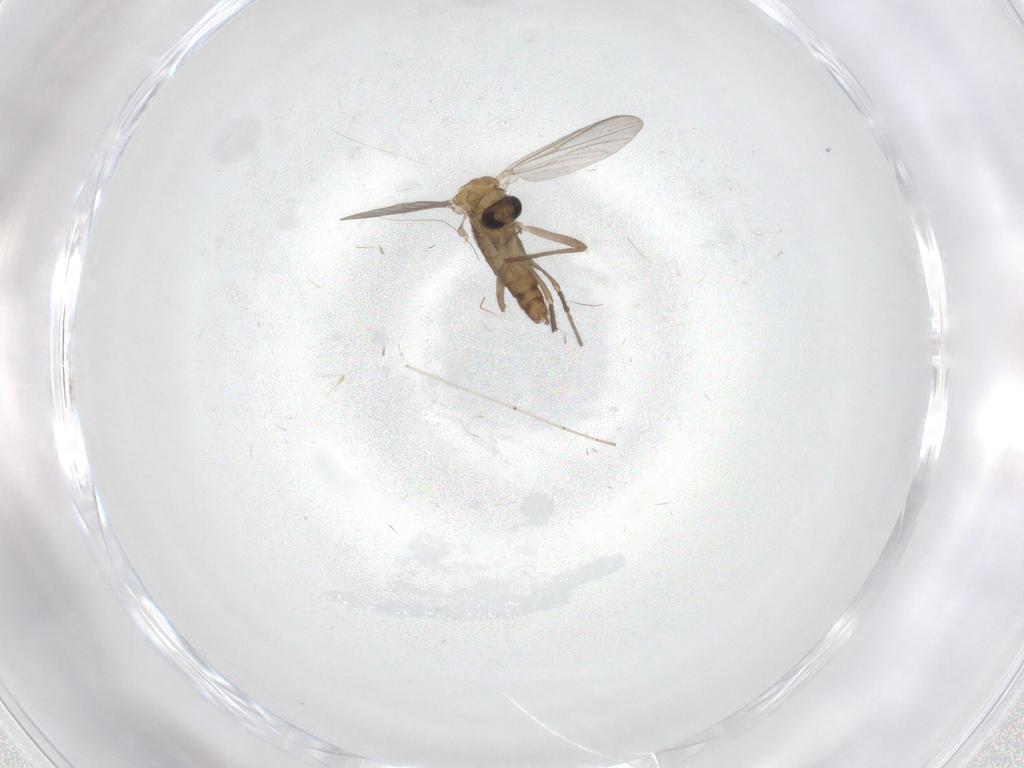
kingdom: Animalia
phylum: Arthropoda
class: Insecta
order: Diptera
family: Chironomidae
